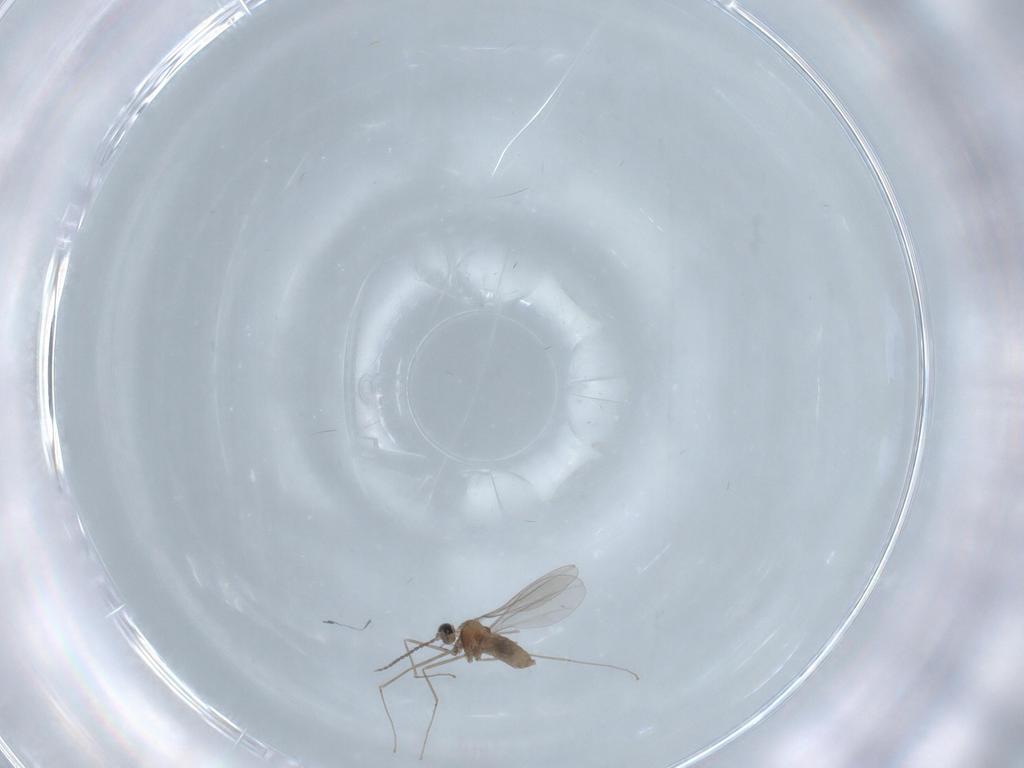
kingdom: Animalia
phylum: Arthropoda
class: Insecta
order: Diptera
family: Cecidomyiidae
